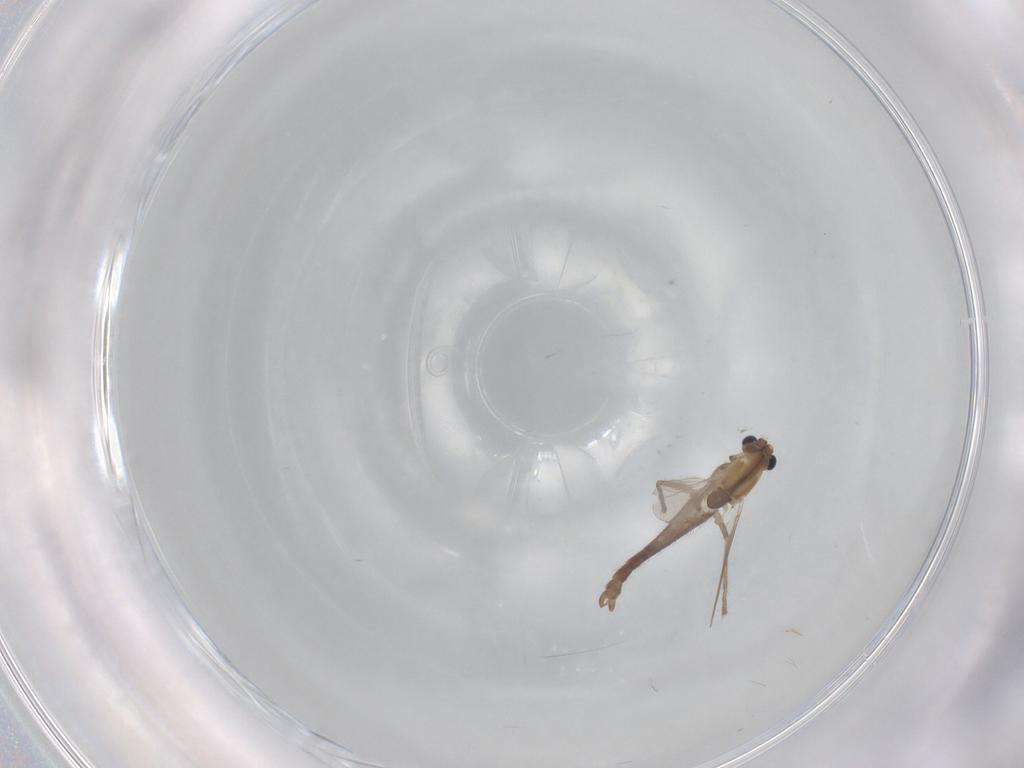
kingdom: Animalia
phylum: Arthropoda
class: Insecta
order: Diptera
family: Chironomidae
